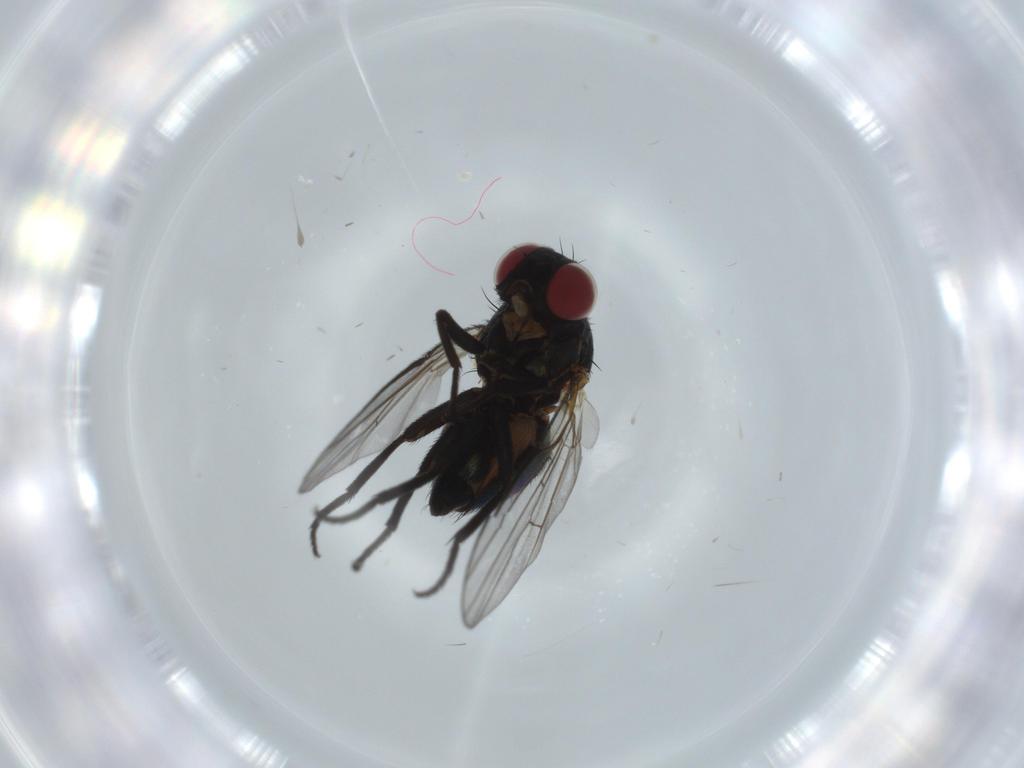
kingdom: Animalia
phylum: Arthropoda
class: Insecta
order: Diptera
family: Agromyzidae
